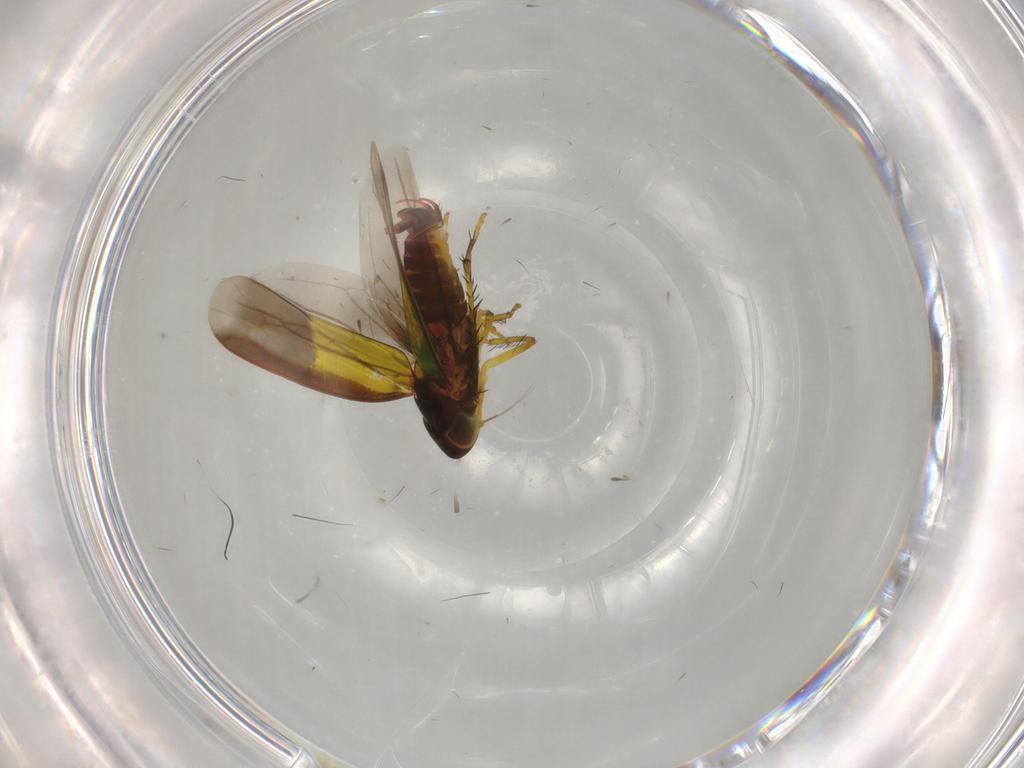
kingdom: Animalia
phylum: Arthropoda
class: Insecta
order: Hemiptera
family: Cicadellidae
